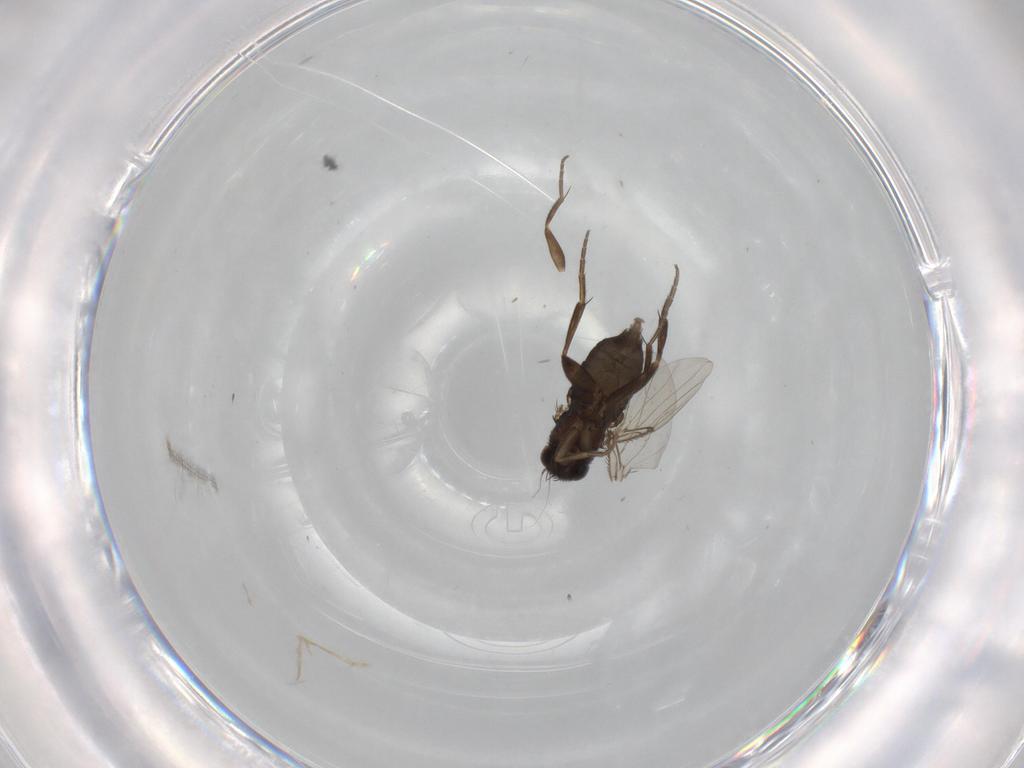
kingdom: Animalia
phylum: Arthropoda
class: Insecta
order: Diptera
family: Phoridae
